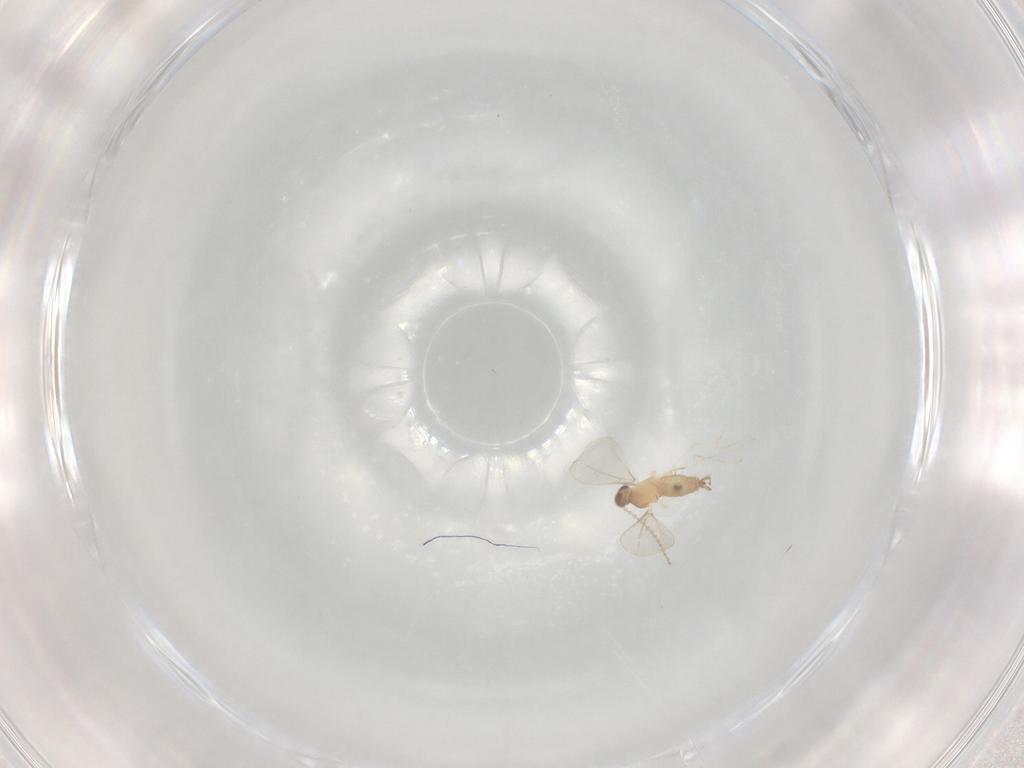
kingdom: Animalia
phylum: Arthropoda
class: Insecta
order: Diptera
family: Cecidomyiidae
